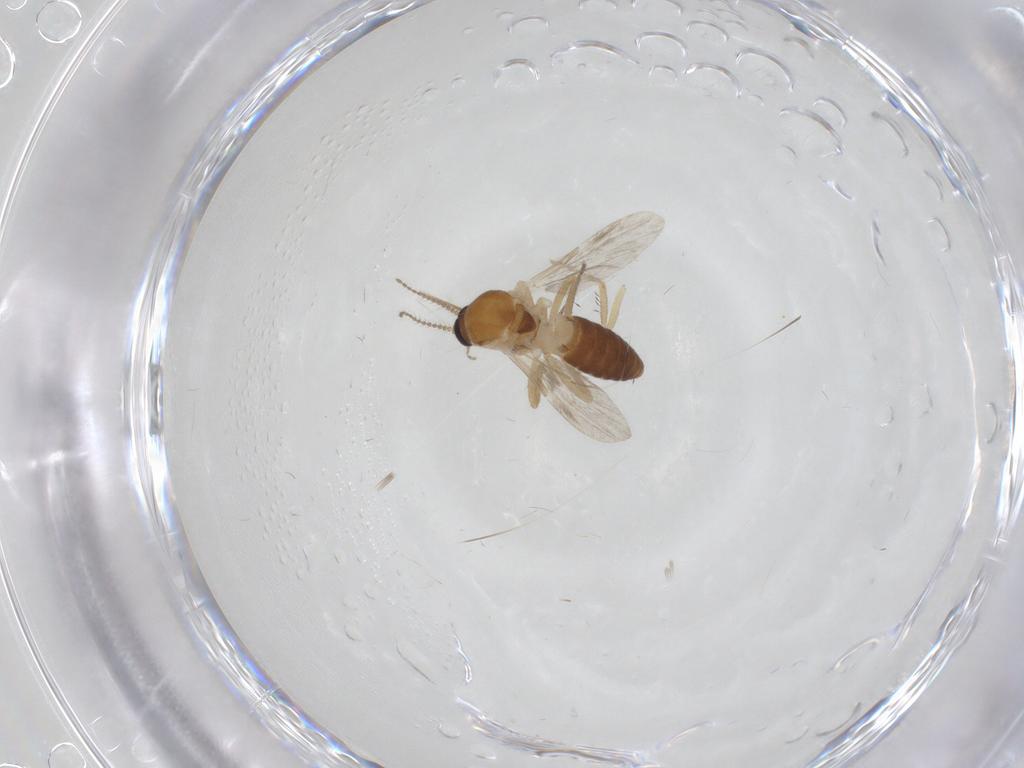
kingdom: Animalia
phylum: Arthropoda
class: Insecta
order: Diptera
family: Ceratopogonidae
